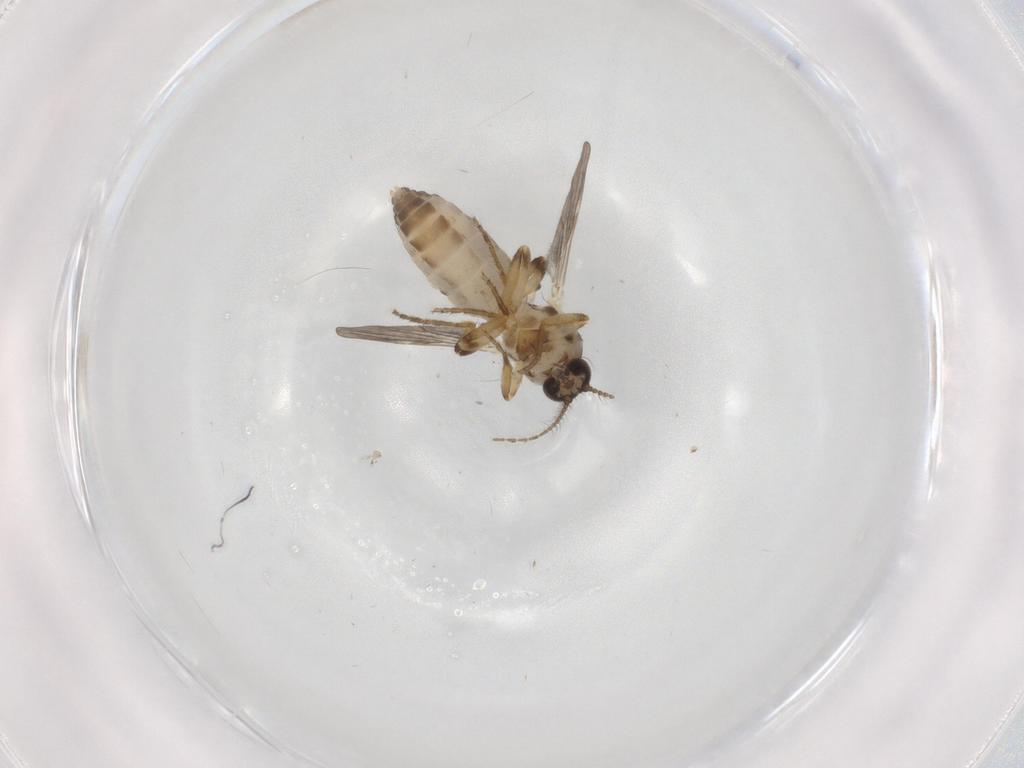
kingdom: Animalia
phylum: Arthropoda
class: Insecta
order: Diptera
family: Ceratopogonidae
